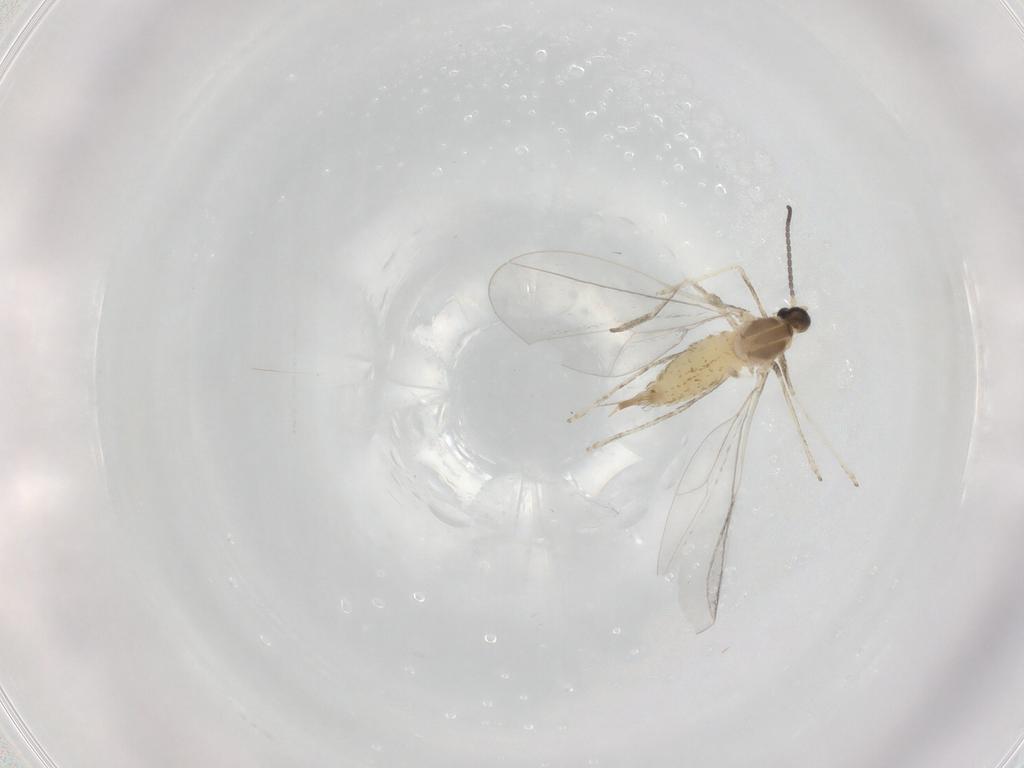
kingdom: Animalia
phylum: Arthropoda
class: Insecta
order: Diptera
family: Cecidomyiidae
